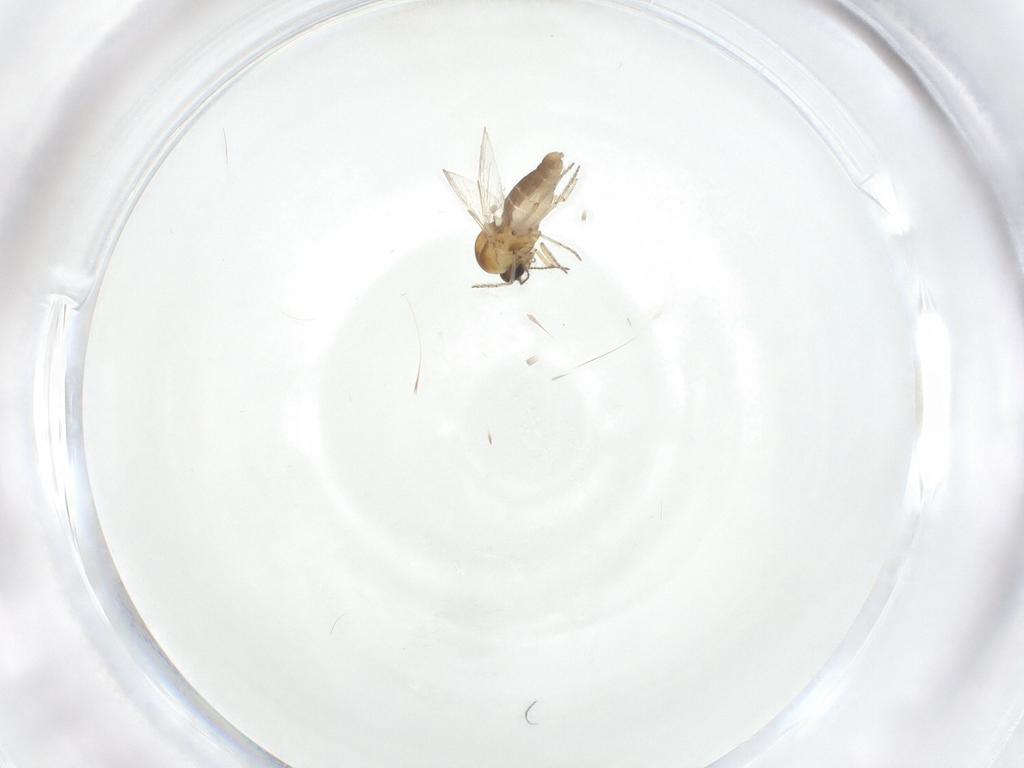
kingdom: Animalia
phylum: Arthropoda
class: Insecta
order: Diptera
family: Ceratopogonidae
